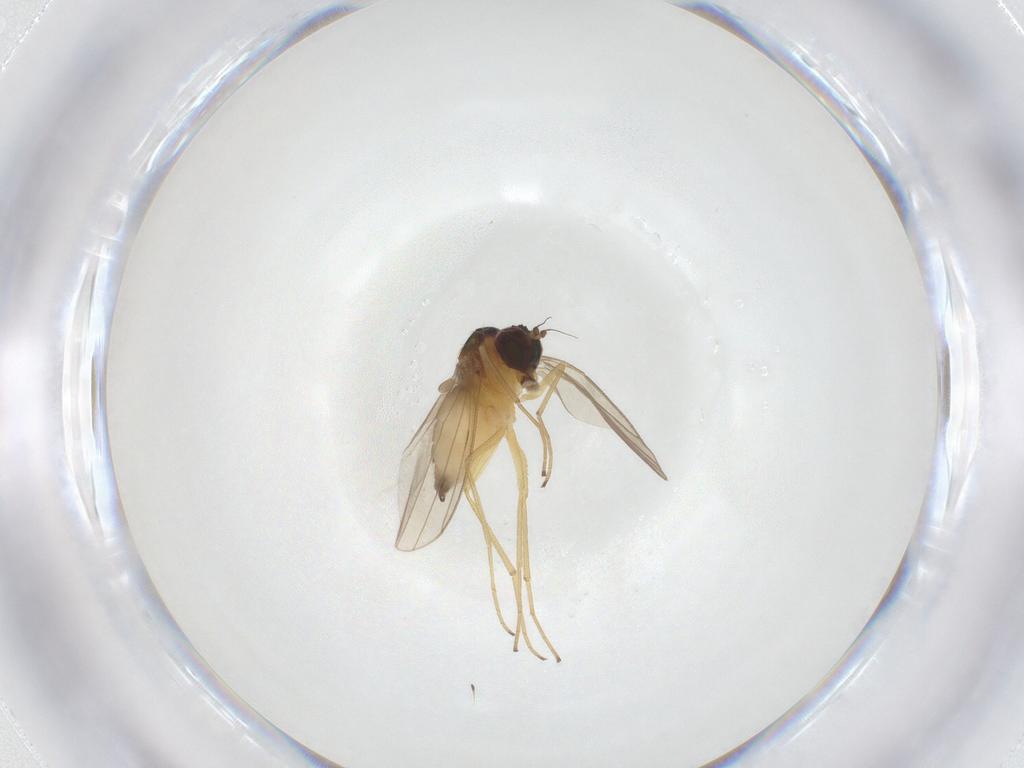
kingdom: Animalia
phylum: Arthropoda
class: Insecta
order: Diptera
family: Dolichopodidae
